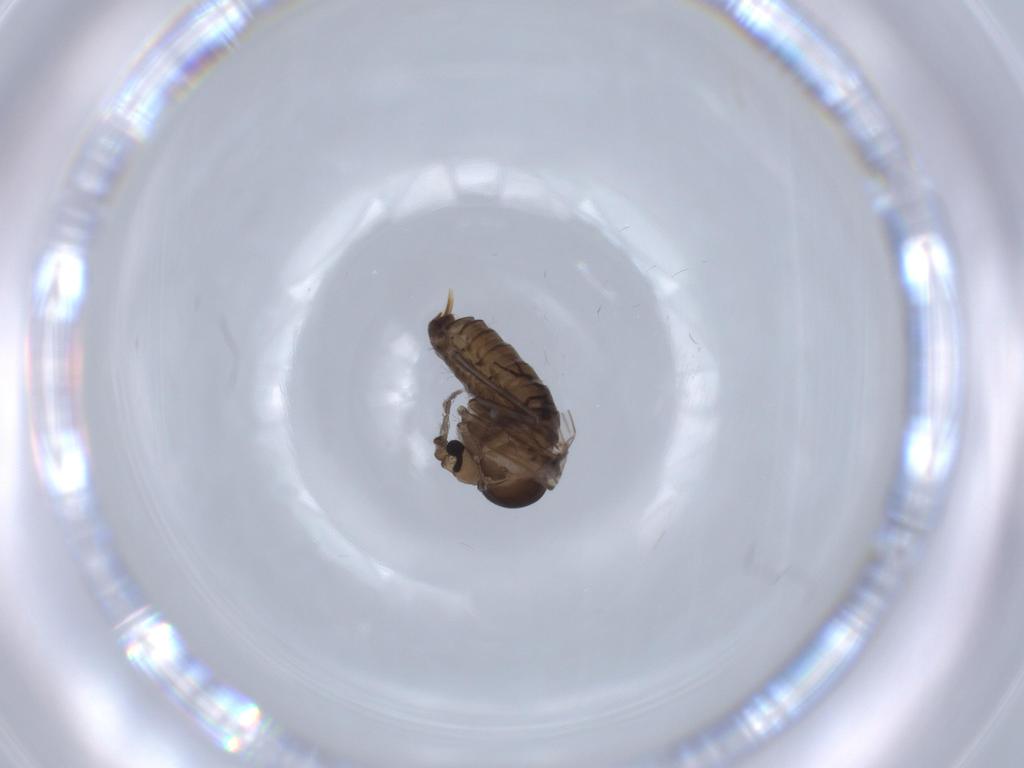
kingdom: Animalia
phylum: Arthropoda
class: Insecta
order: Diptera
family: Psychodidae
